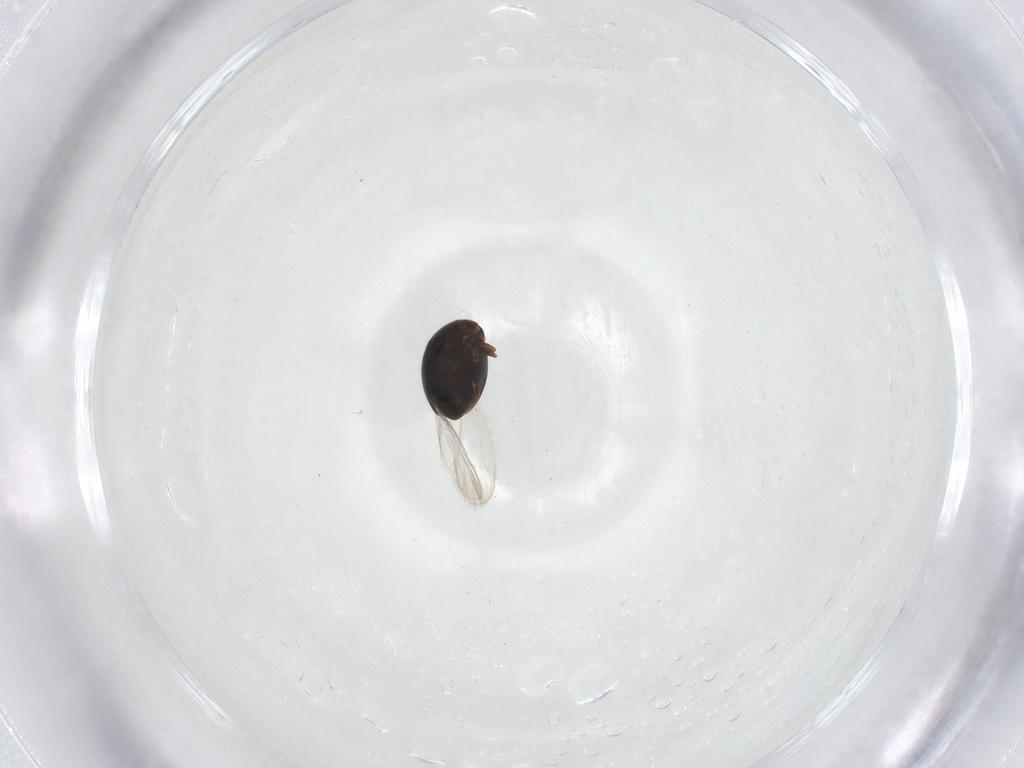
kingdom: Animalia
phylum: Arthropoda
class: Insecta
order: Coleoptera
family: Corylophidae
